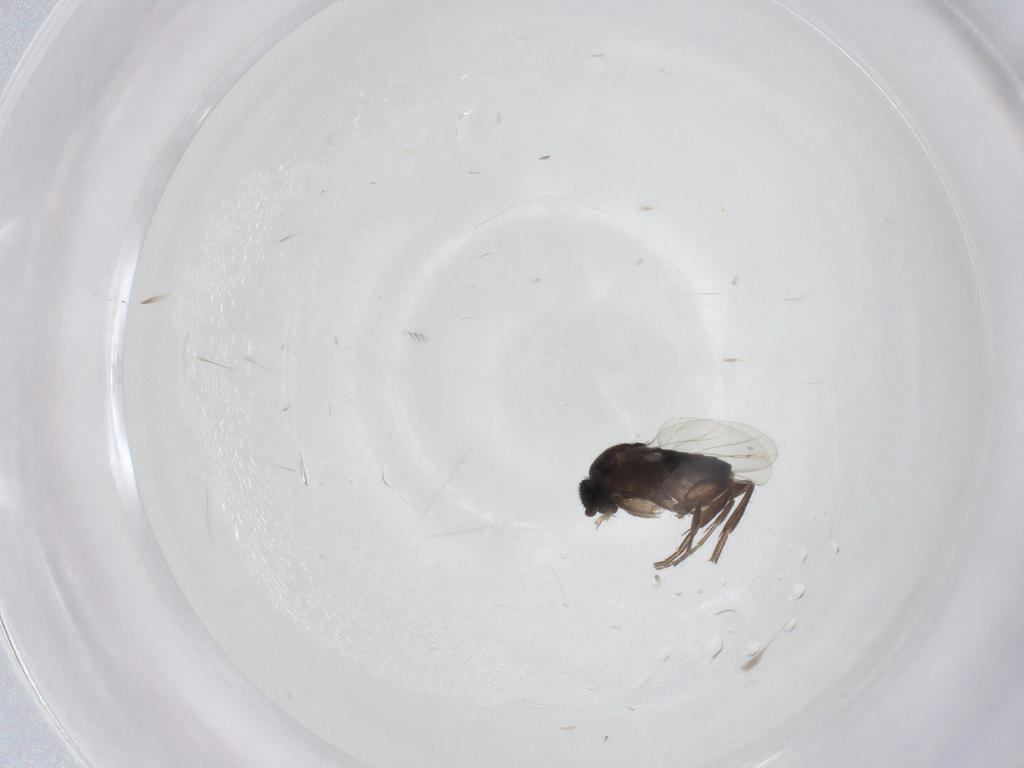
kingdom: Animalia
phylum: Arthropoda
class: Insecta
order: Diptera
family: Phoridae
